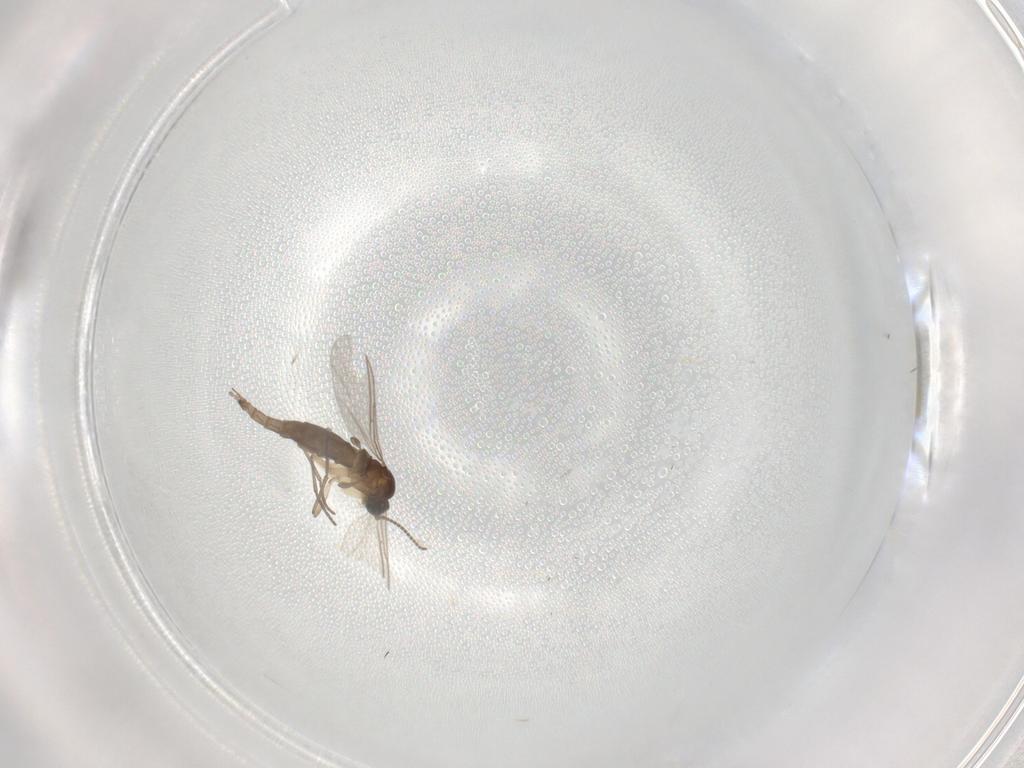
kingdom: Animalia
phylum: Arthropoda
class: Insecta
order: Diptera
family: Sciaridae
